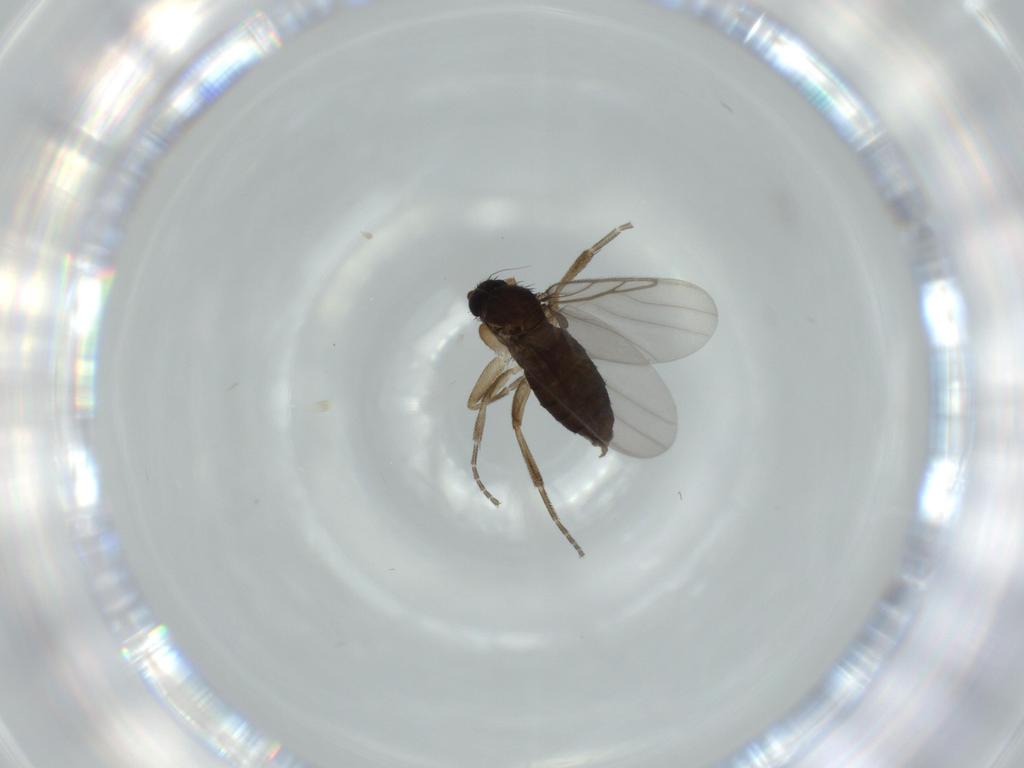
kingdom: Animalia
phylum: Arthropoda
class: Insecta
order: Diptera
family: Phoridae
